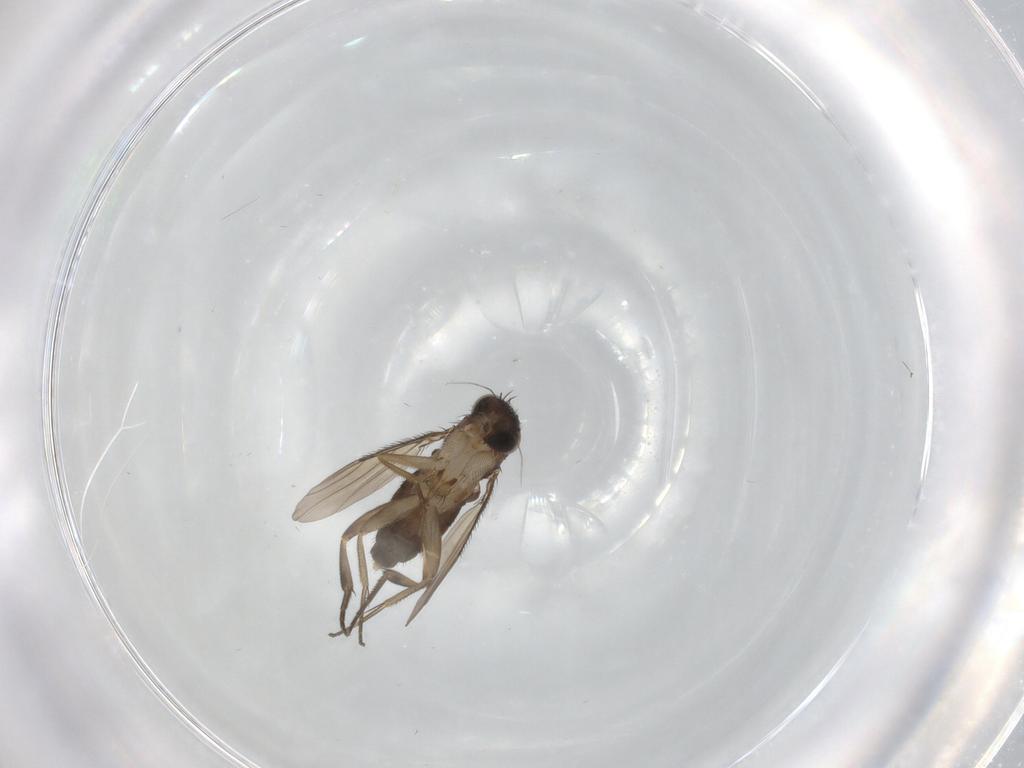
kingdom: Animalia
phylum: Arthropoda
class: Insecta
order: Diptera
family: Phoridae
